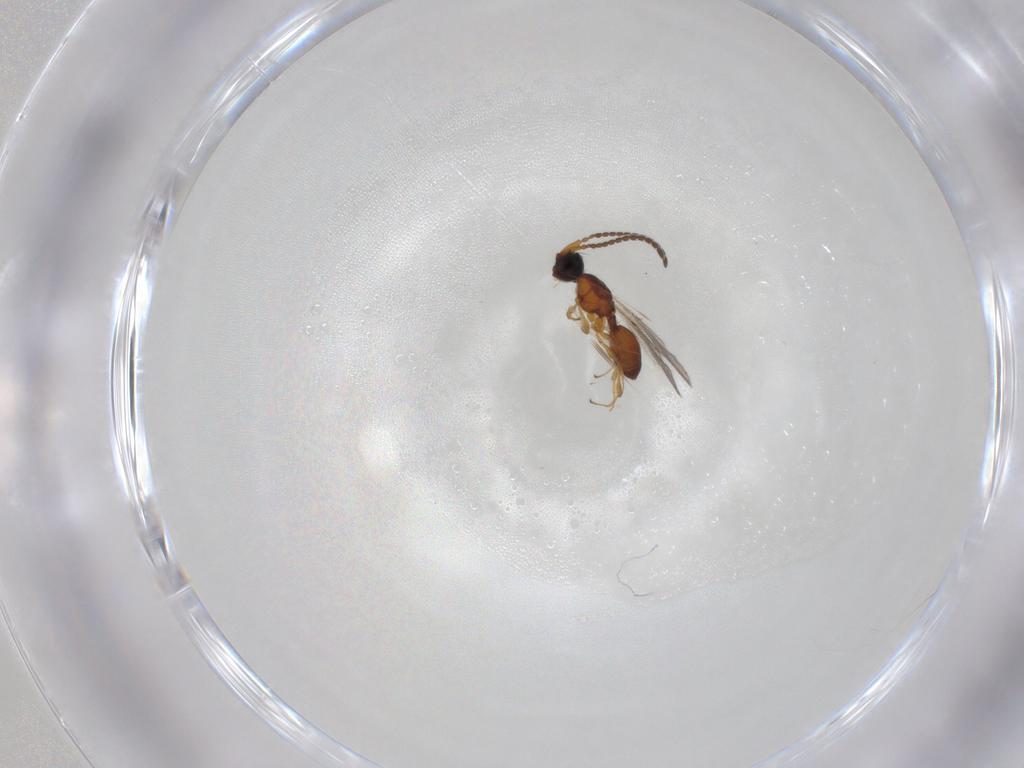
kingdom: Animalia
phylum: Arthropoda
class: Insecta
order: Hymenoptera
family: Diapriidae
